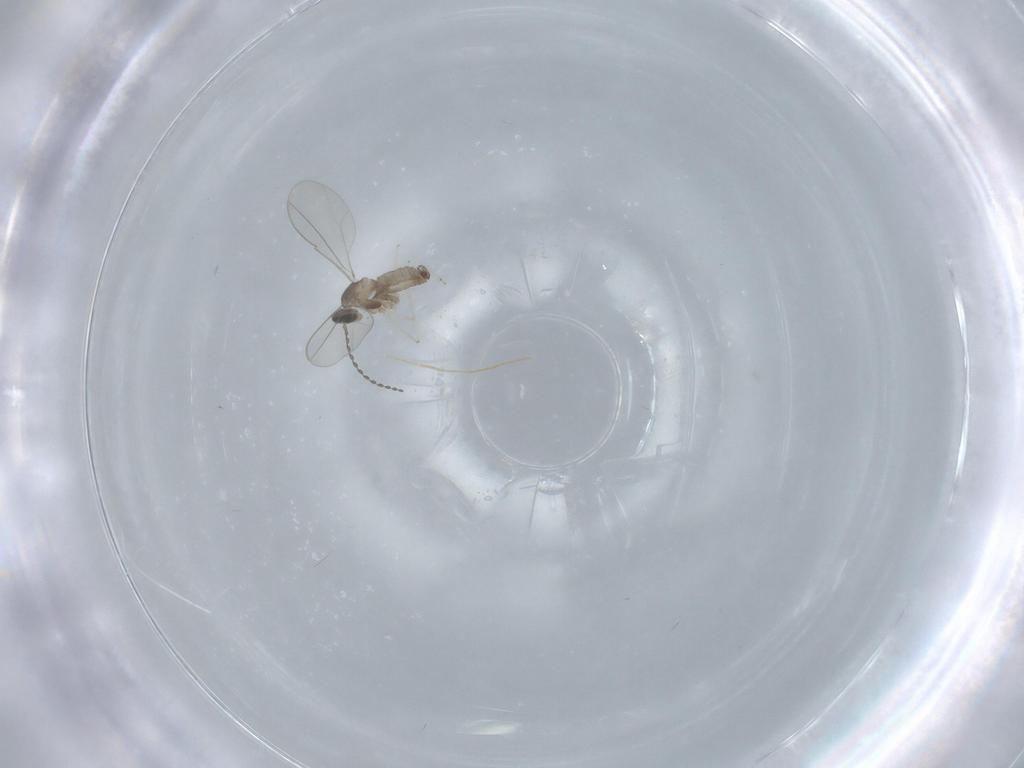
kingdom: Animalia
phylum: Arthropoda
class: Insecta
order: Diptera
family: Cecidomyiidae
